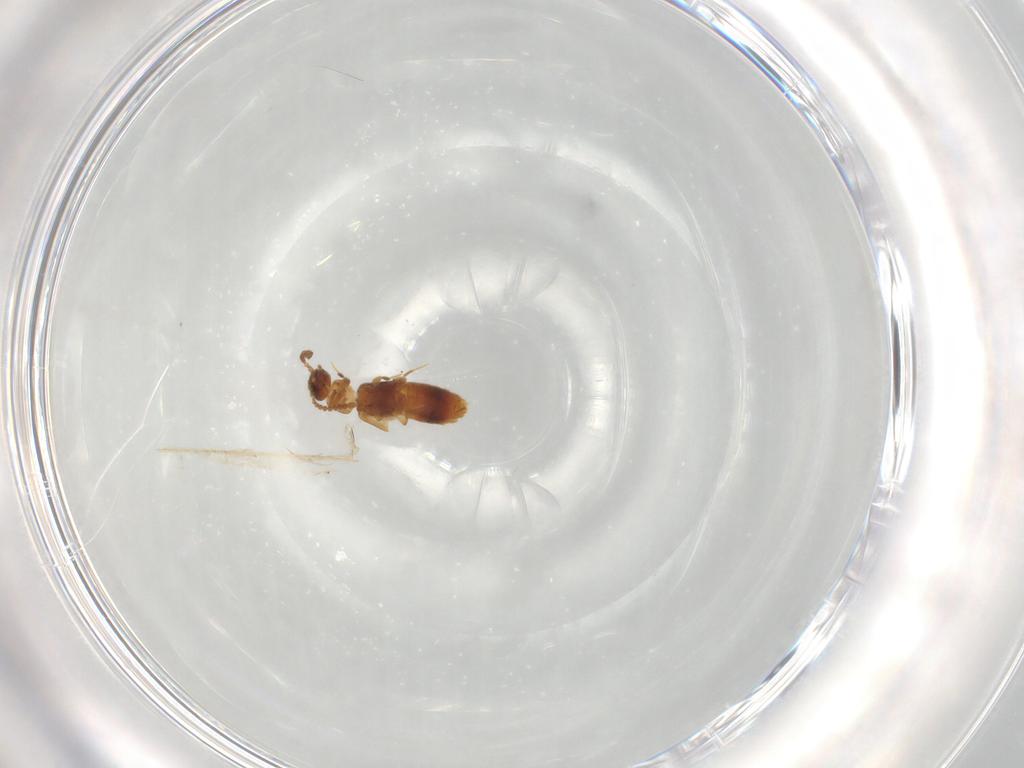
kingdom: Animalia
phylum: Arthropoda
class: Insecta
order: Coleoptera
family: Staphylinidae
